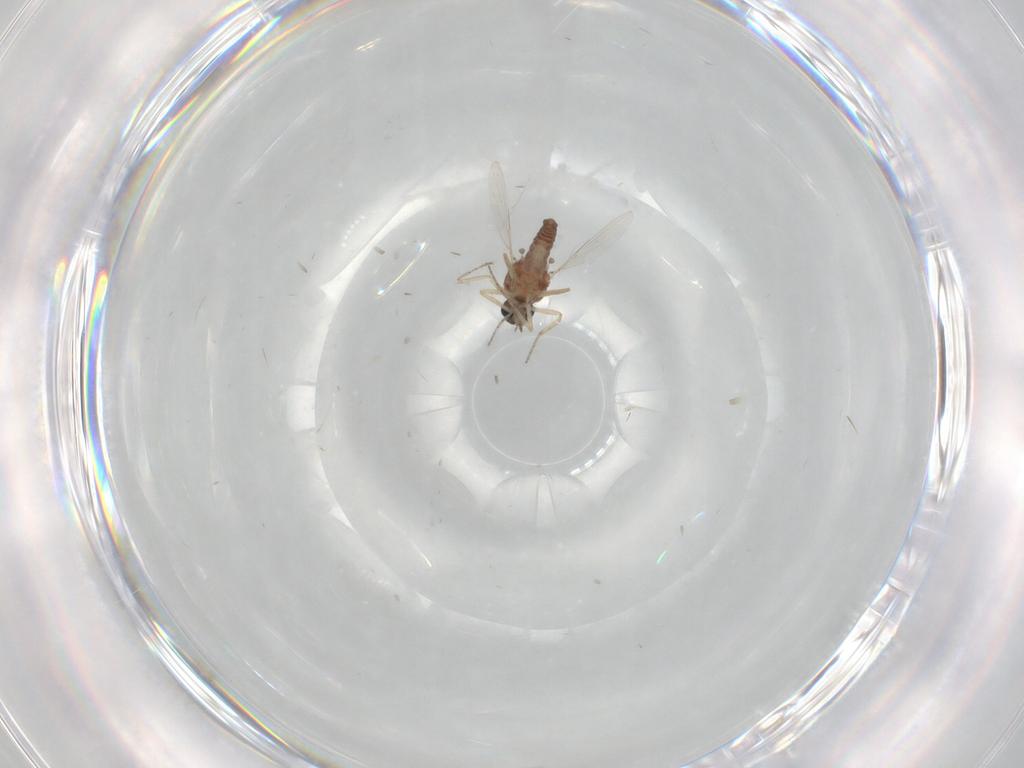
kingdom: Animalia
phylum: Arthropoda
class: Insecta
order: Diptera
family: Ceratopogonidae
